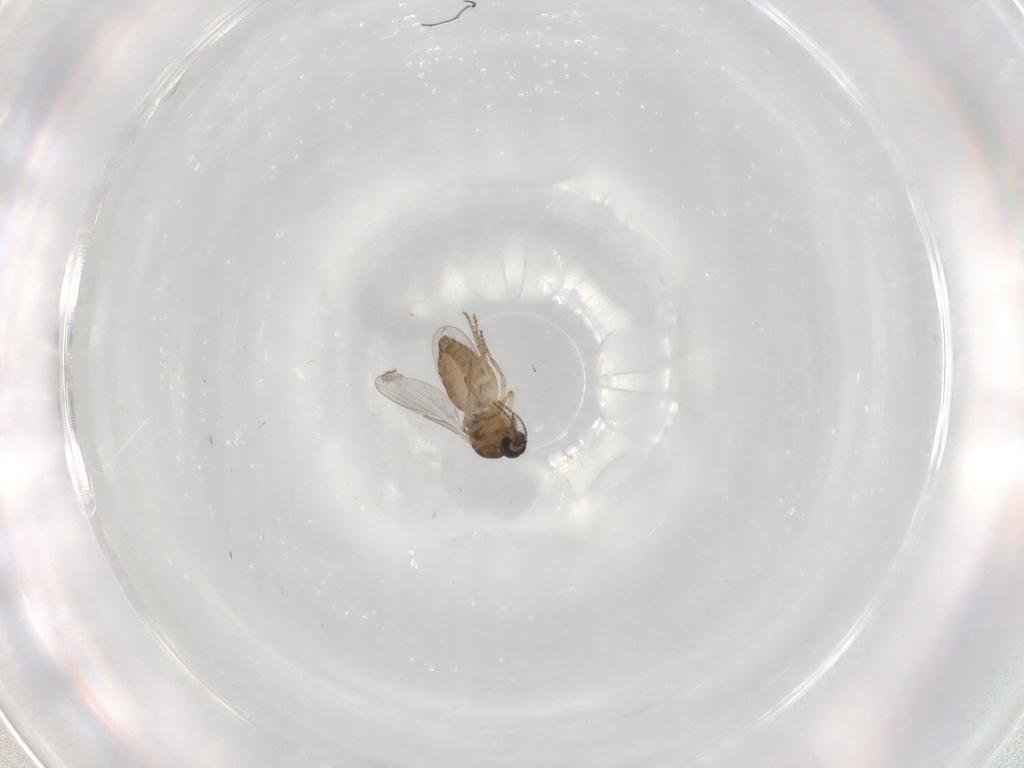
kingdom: Animalia
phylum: Arthropoda
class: Insecta
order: Diptera
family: Ceratopogonidae
